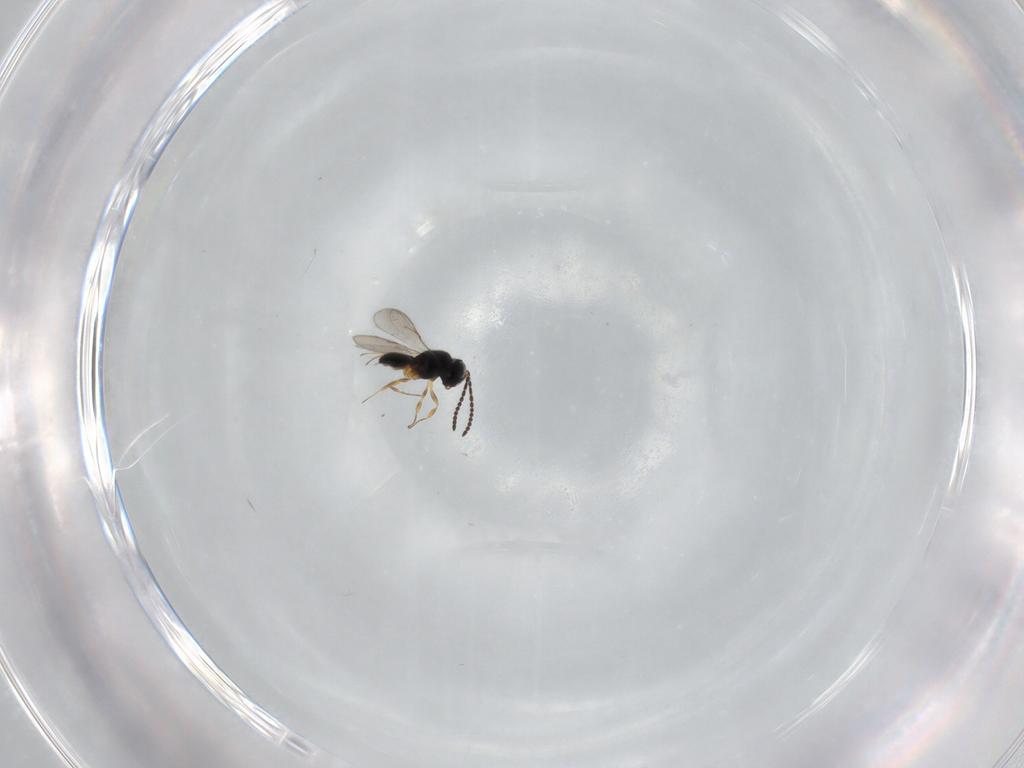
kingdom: Animalia
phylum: Arthropoda
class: Insecta
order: Hymenoptera
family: Scelionidae
